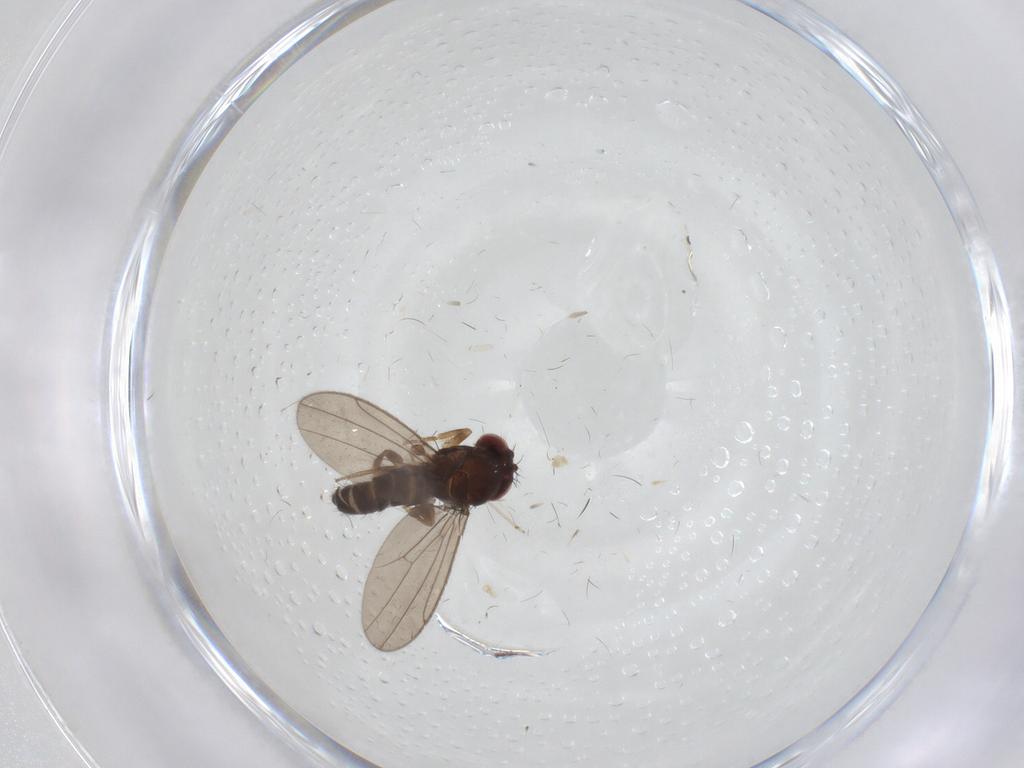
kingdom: Animalia
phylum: Arthropoda
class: Insecta
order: Diptera
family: Drosophilidae
